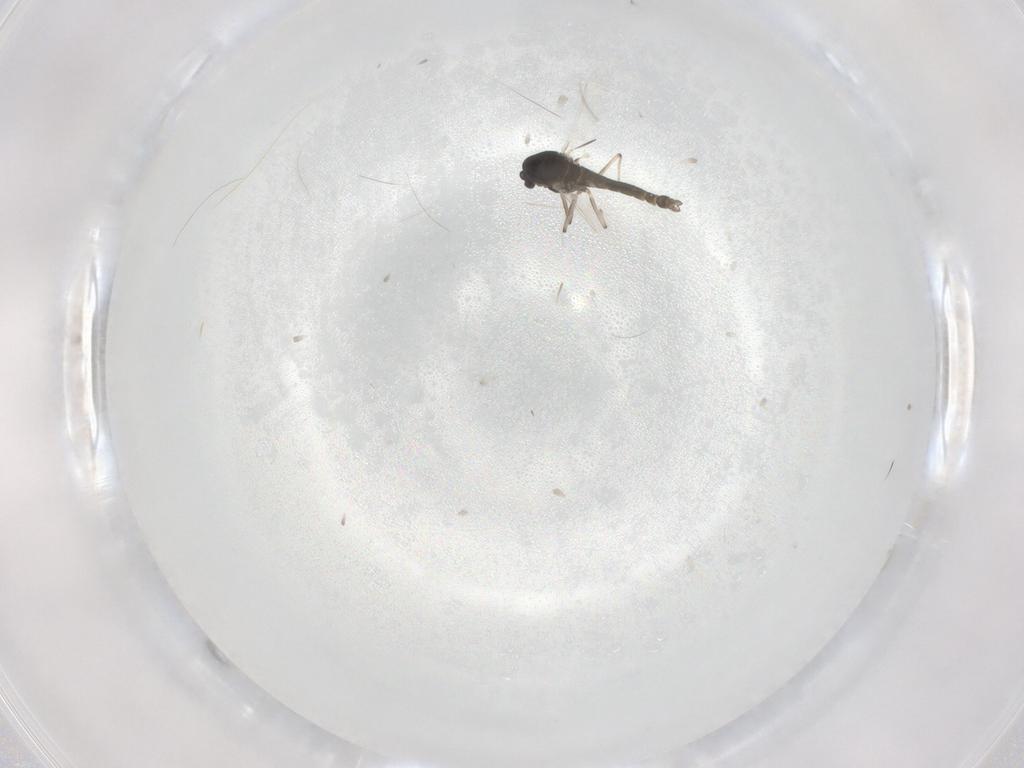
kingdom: Animalia
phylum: Arthropoda
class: Insecta
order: Diptera
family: Chironomidae
